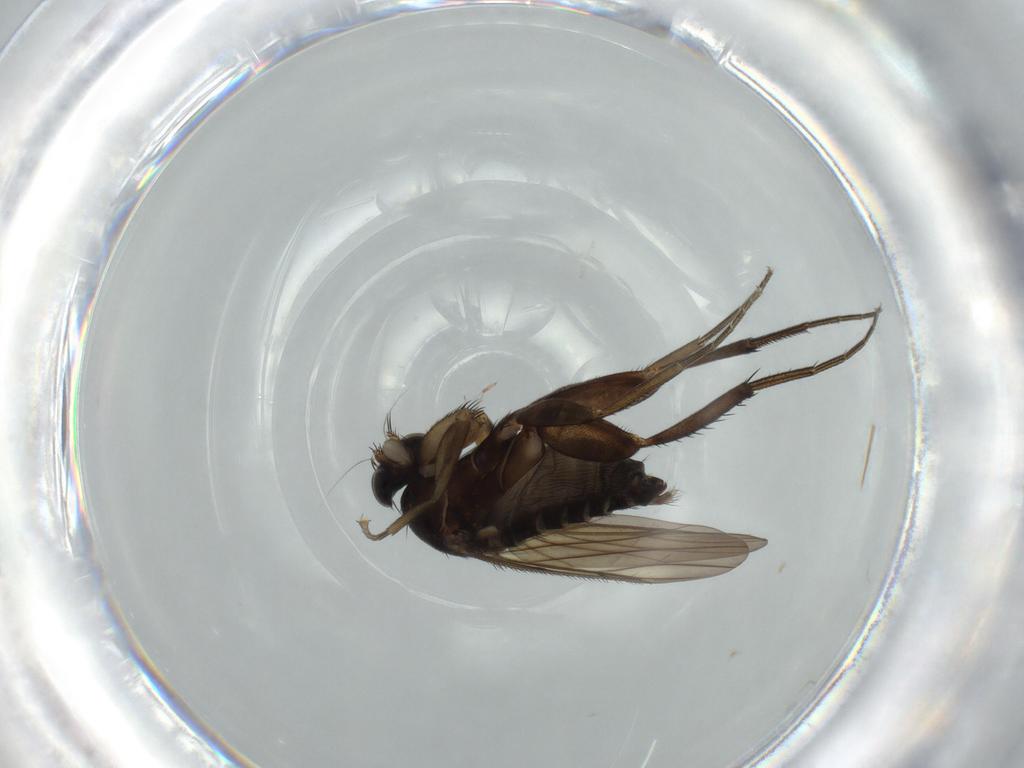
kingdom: Animalia
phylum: Arthropoda
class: Insecta
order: Diptera
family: Phoridae
